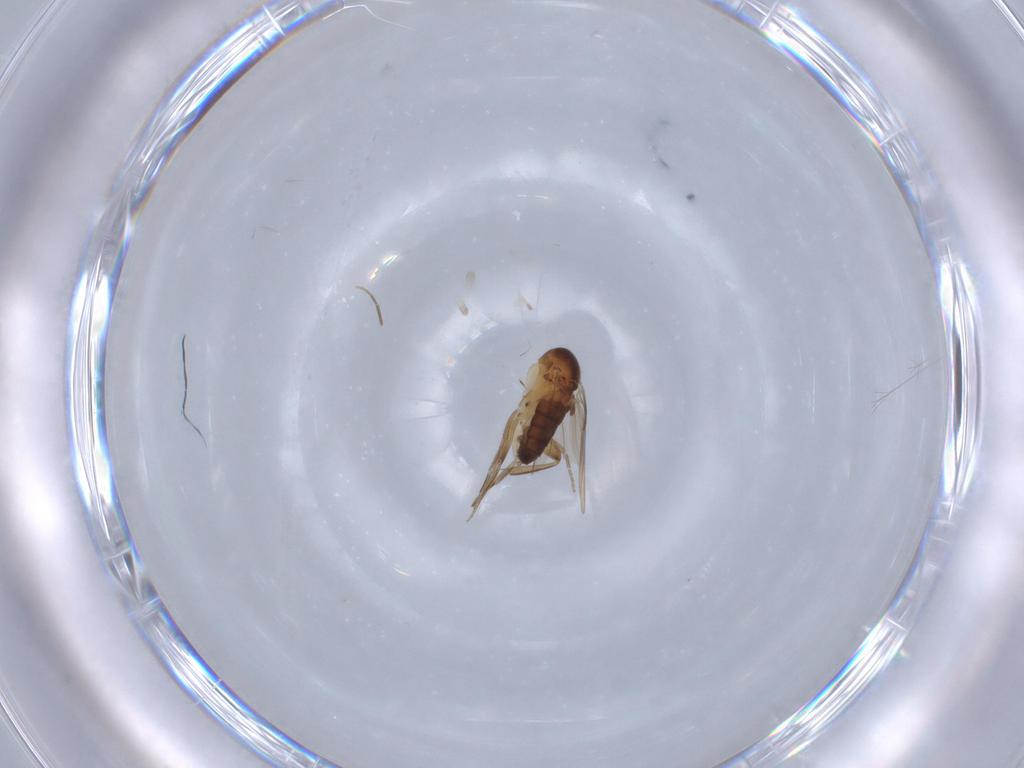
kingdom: Animalia
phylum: Arthropoda
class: Insecta
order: Diptera
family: Phoridae
